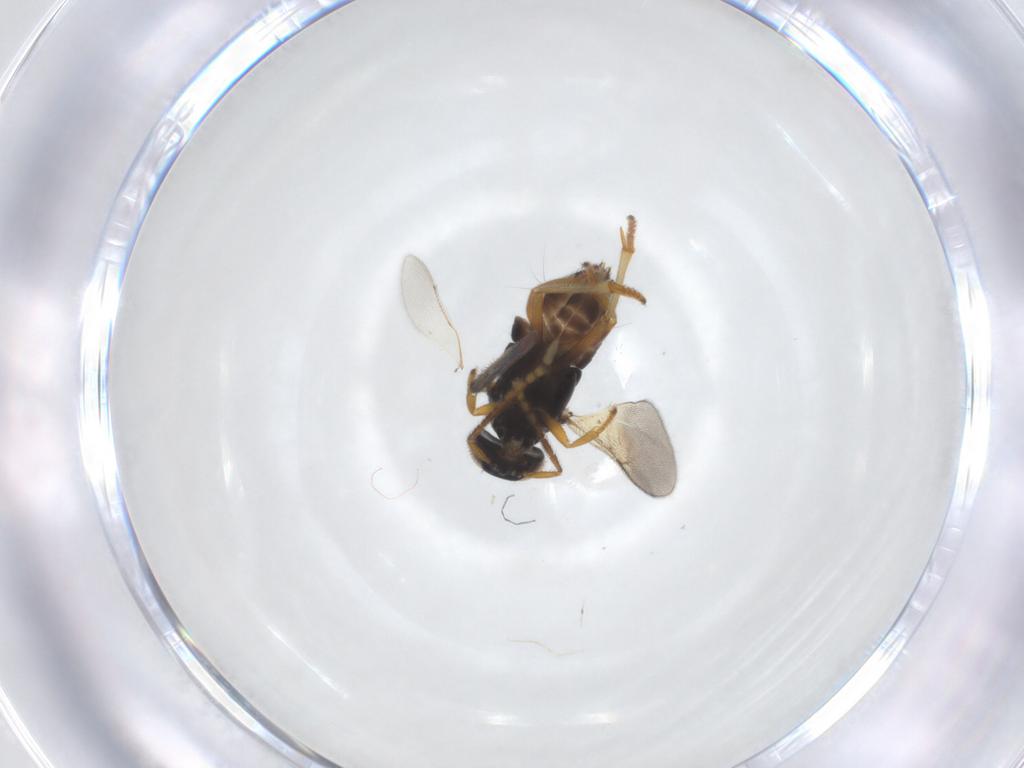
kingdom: Animalia
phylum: Arthropoda
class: Insecta
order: Hymenoptera
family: Encyrtidae
